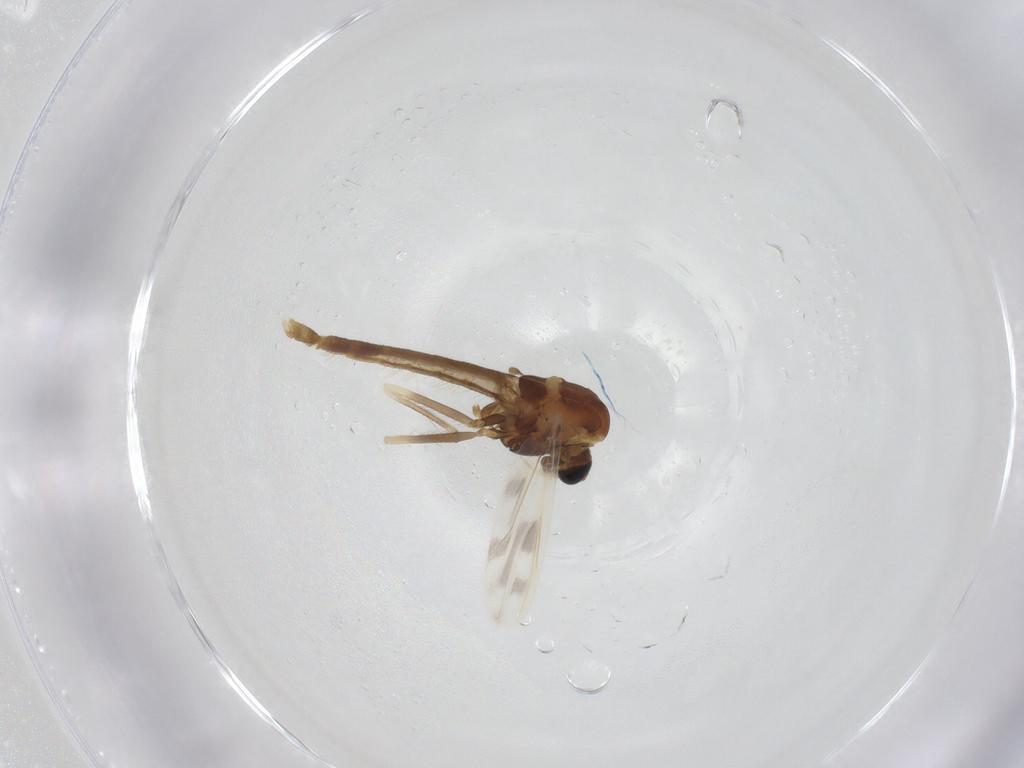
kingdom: Animalia
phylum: Arthropoda
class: Insecta
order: Diptera
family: Chironomidae
